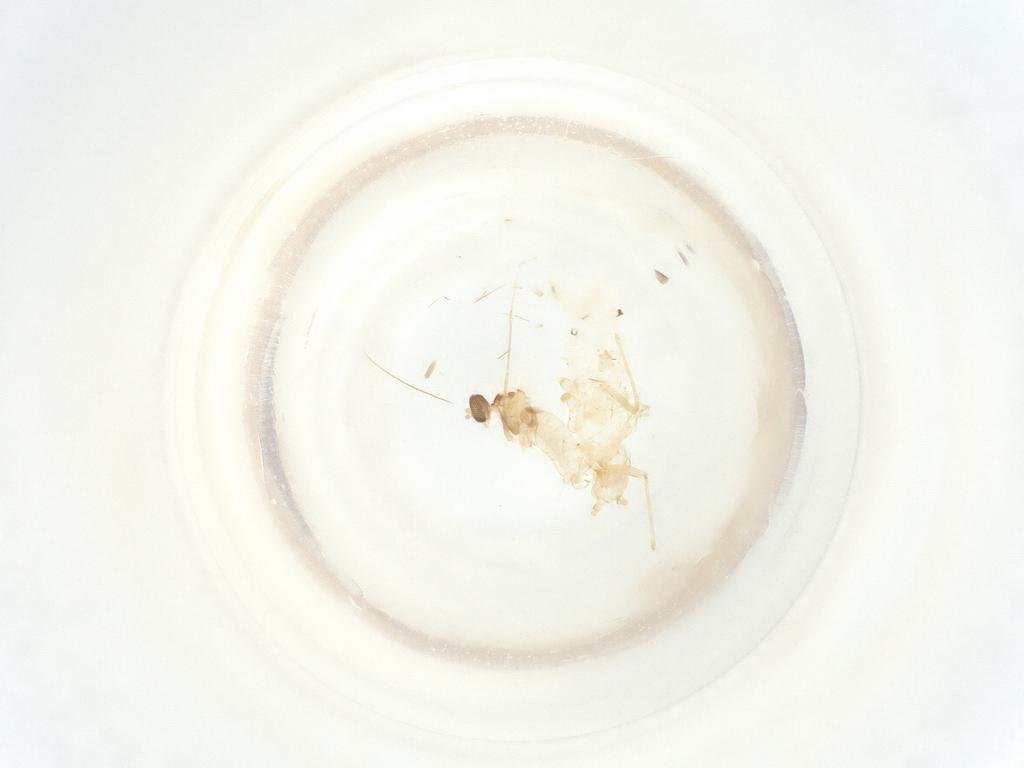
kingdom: Animalia
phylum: Arthropoda
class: Insecta
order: Diptera
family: Cecidomyiidae
